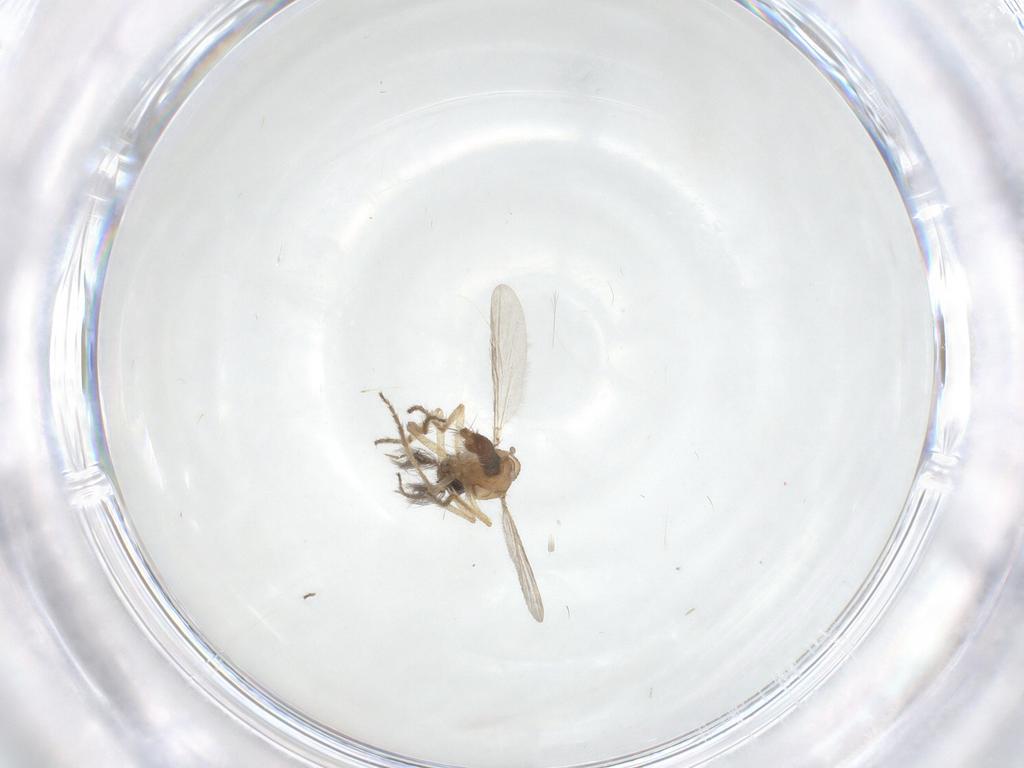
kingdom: Animalia
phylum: Arthropoda
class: Insecta
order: Diptera
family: Ceratopogonidae
